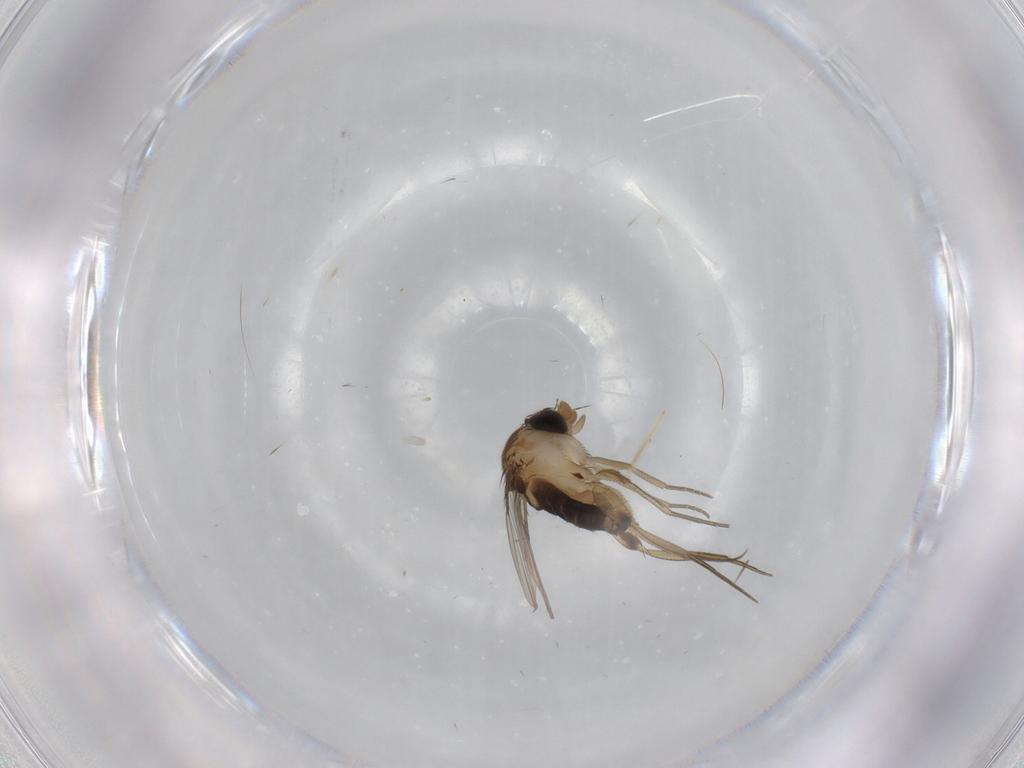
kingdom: Animalia
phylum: Arthropoda
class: Insecta
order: Diptera
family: Phoridae
